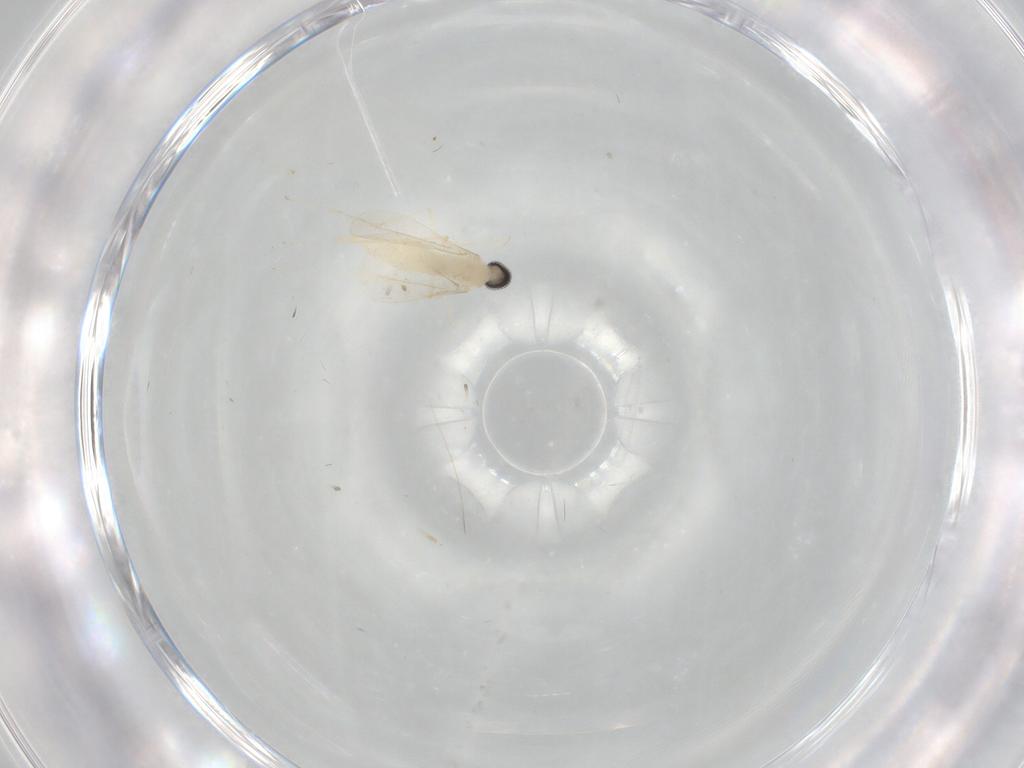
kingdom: Animalia
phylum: Arthropoda
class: Insecta
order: Diptera
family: Cecidomyiidae
